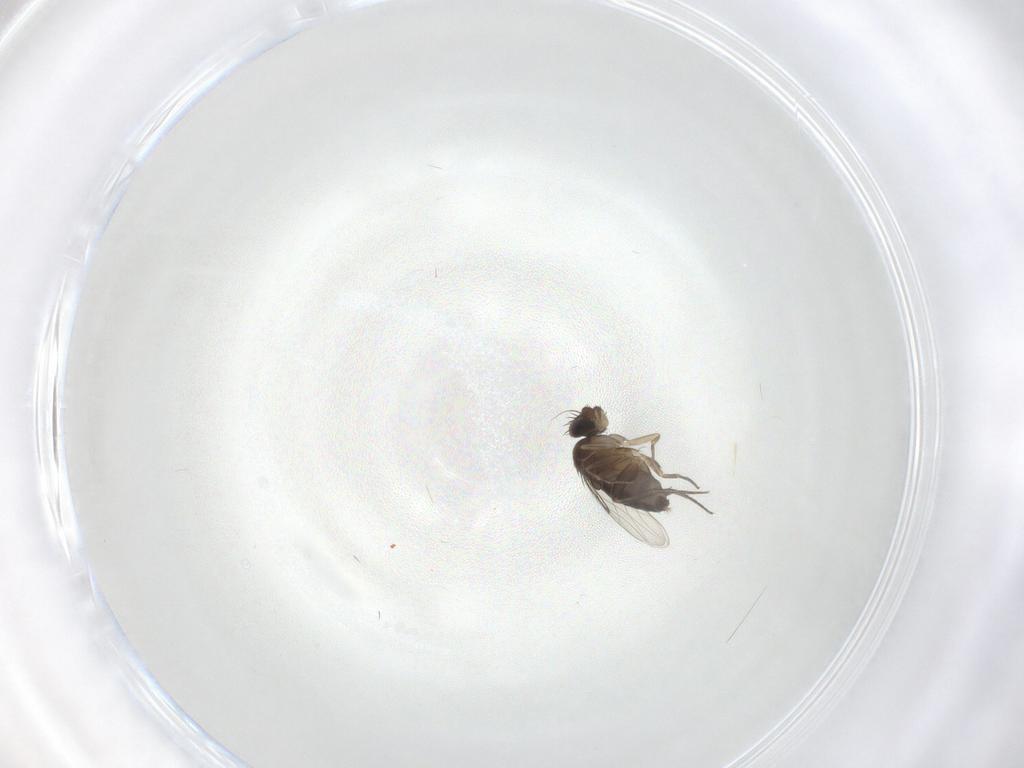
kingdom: Animalia
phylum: Arthropoda
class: Insecta
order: Diptera
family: Phoridae
